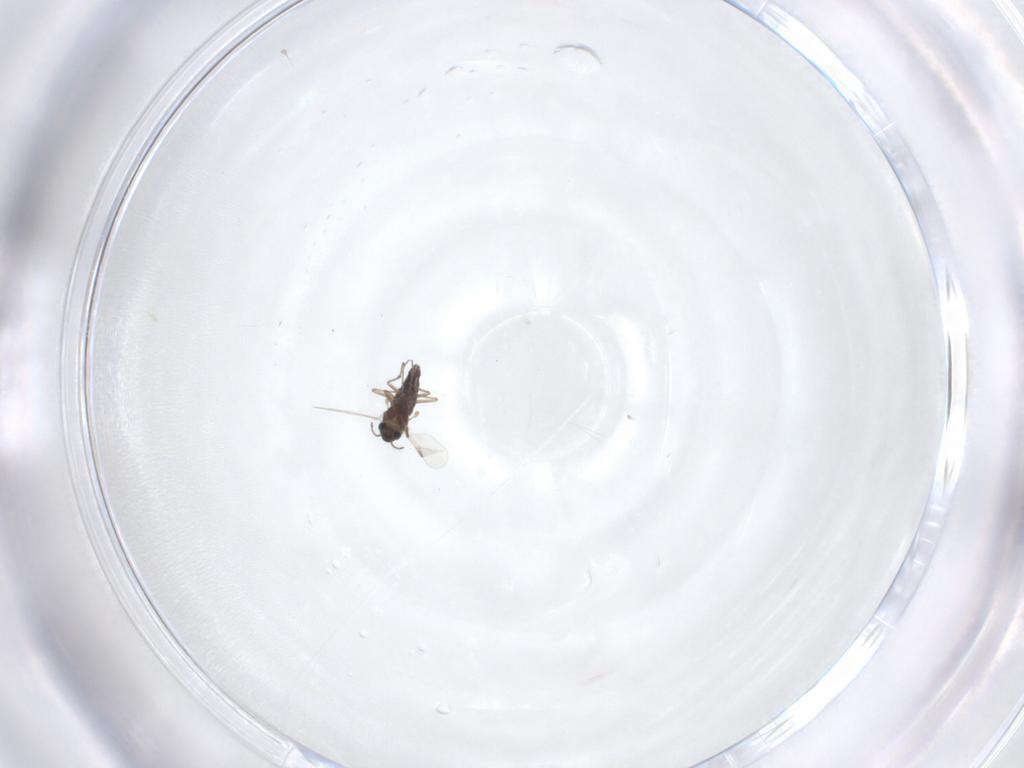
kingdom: Animalia
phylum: Arthropoda
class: Insecta
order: Diptera
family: Chironomidae
